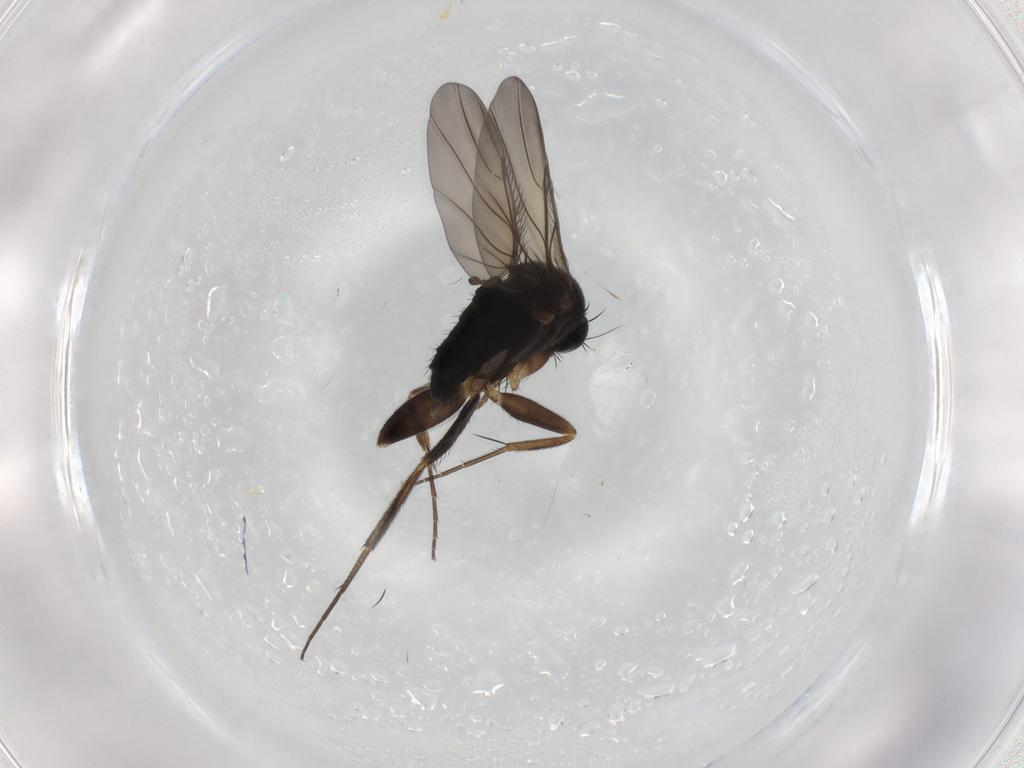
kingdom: Animalia
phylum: Arthropoda
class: Insecta
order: Diptera
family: Phoridae
